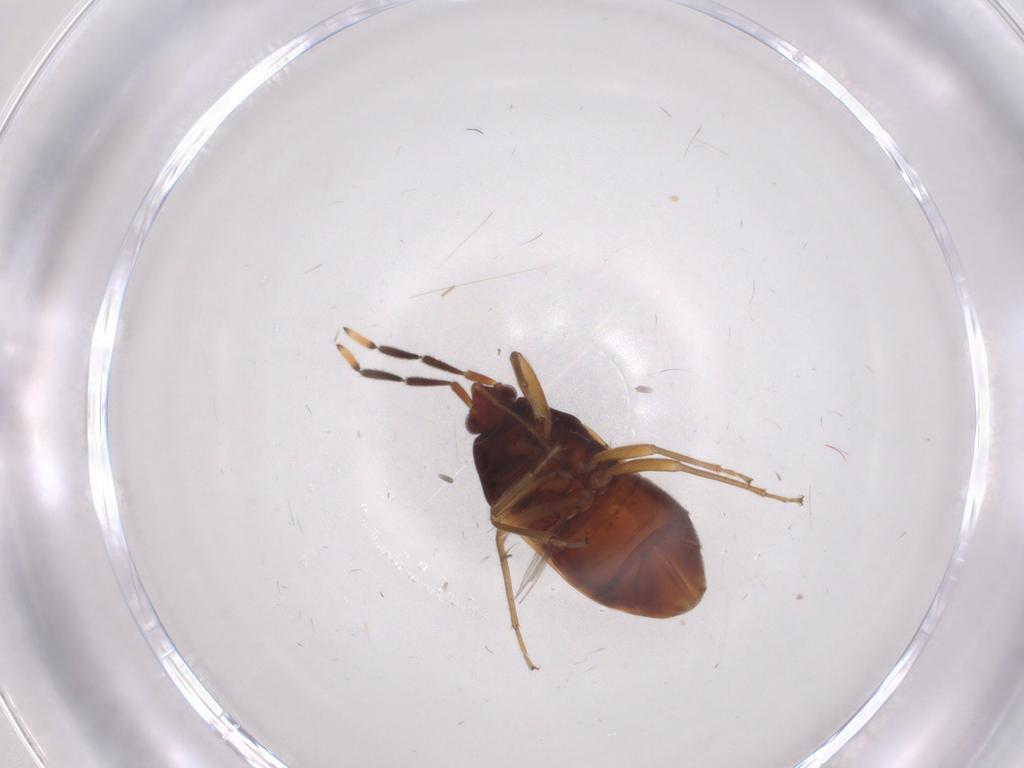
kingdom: Animalia
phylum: Arthropoda
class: Insecta
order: Hemiptera
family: Rhyparochromidae
